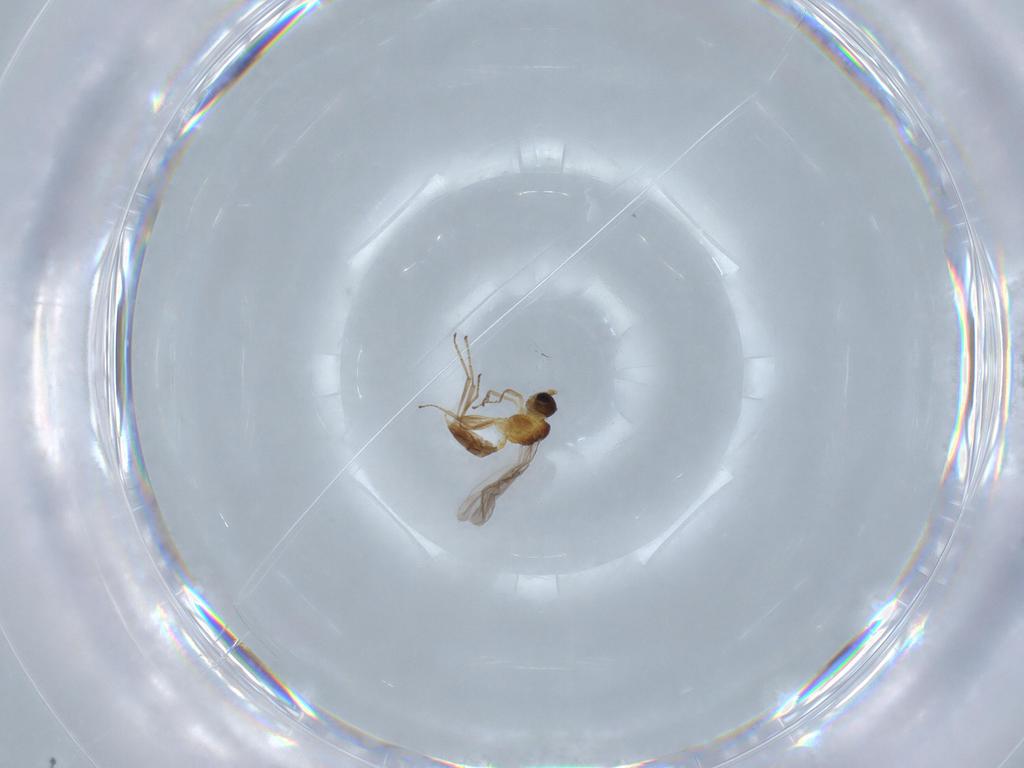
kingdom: Animalia
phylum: Arthropoda
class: Insecta
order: Hymenoptera
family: Braconidae
